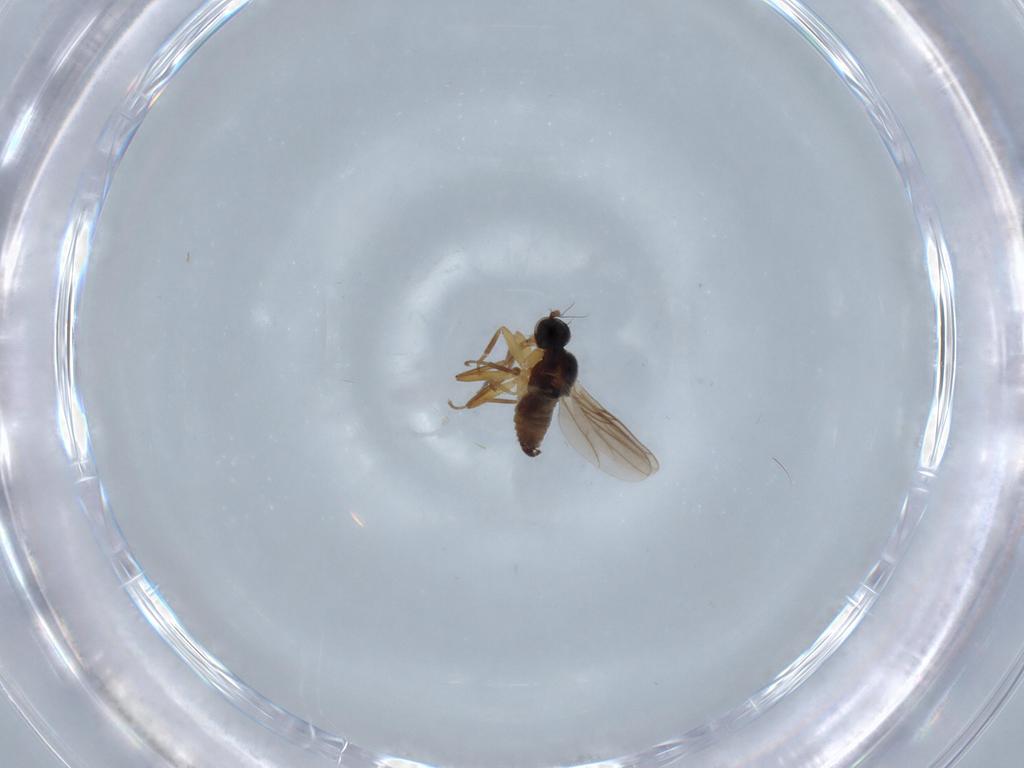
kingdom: Animalia
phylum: Arthropoda
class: Insecta
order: Diptera
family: Hybotidae
